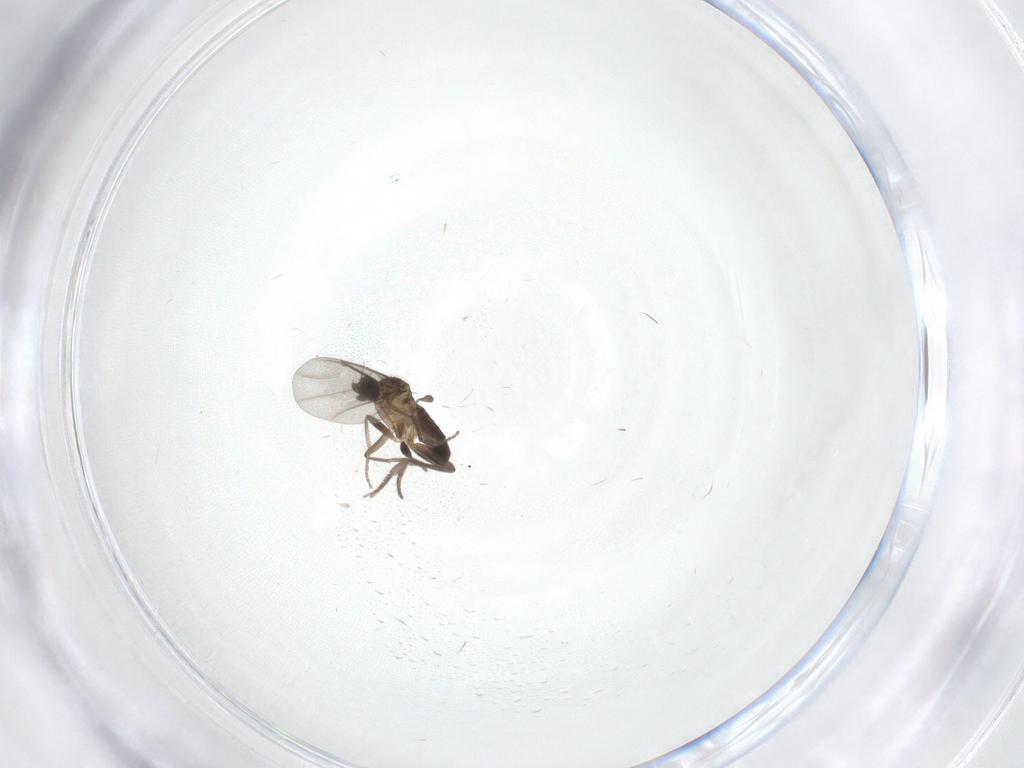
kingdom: Animalia
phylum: Arthropoda
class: Insecta
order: Diptera
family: Phoridae
